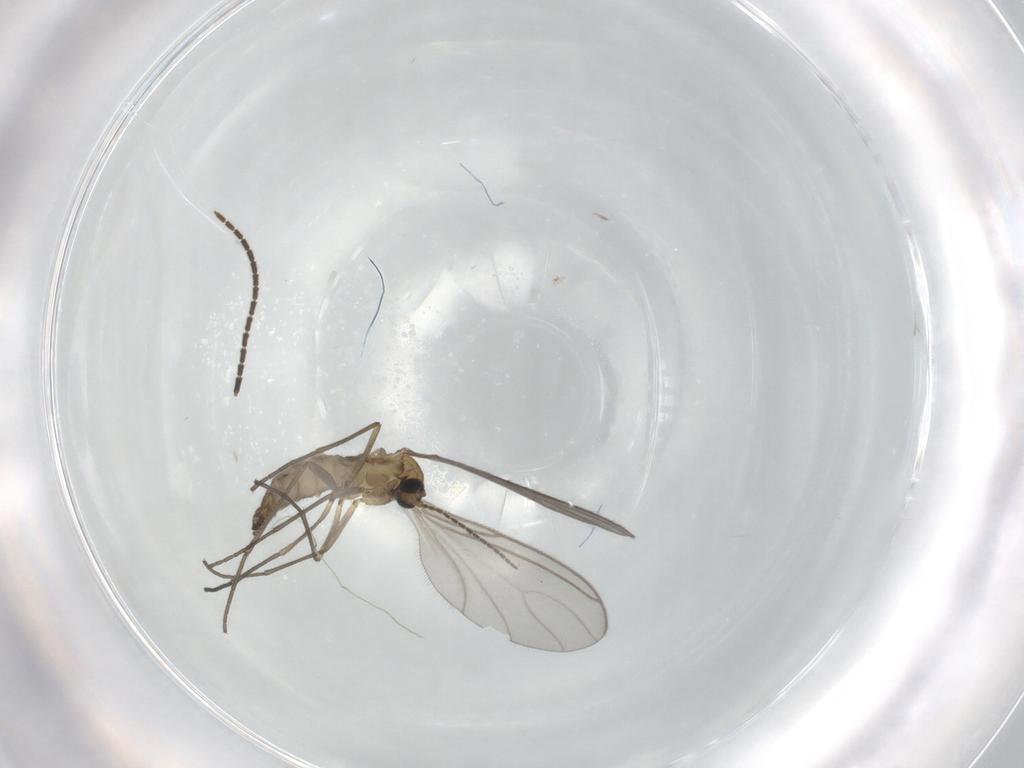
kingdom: Animalia
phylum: Arthropoda
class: Insecta
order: Diptera
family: Sciaridae
